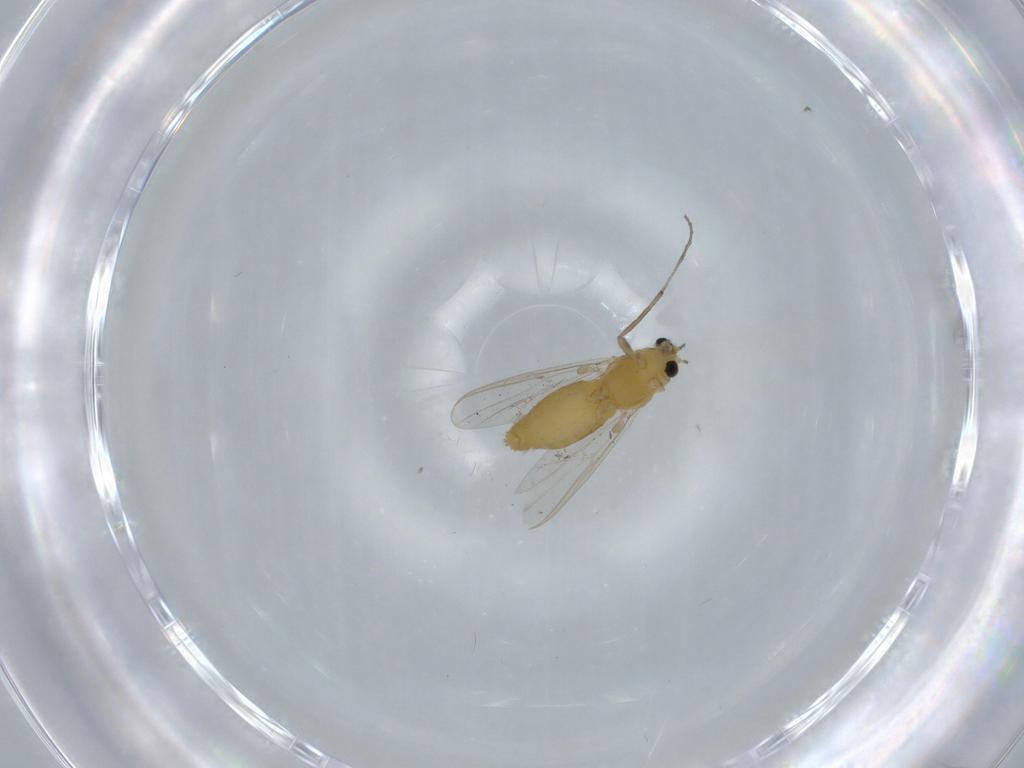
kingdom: Animalia
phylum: Arthropoda
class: Insecta
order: Diptera
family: Chironomidae
